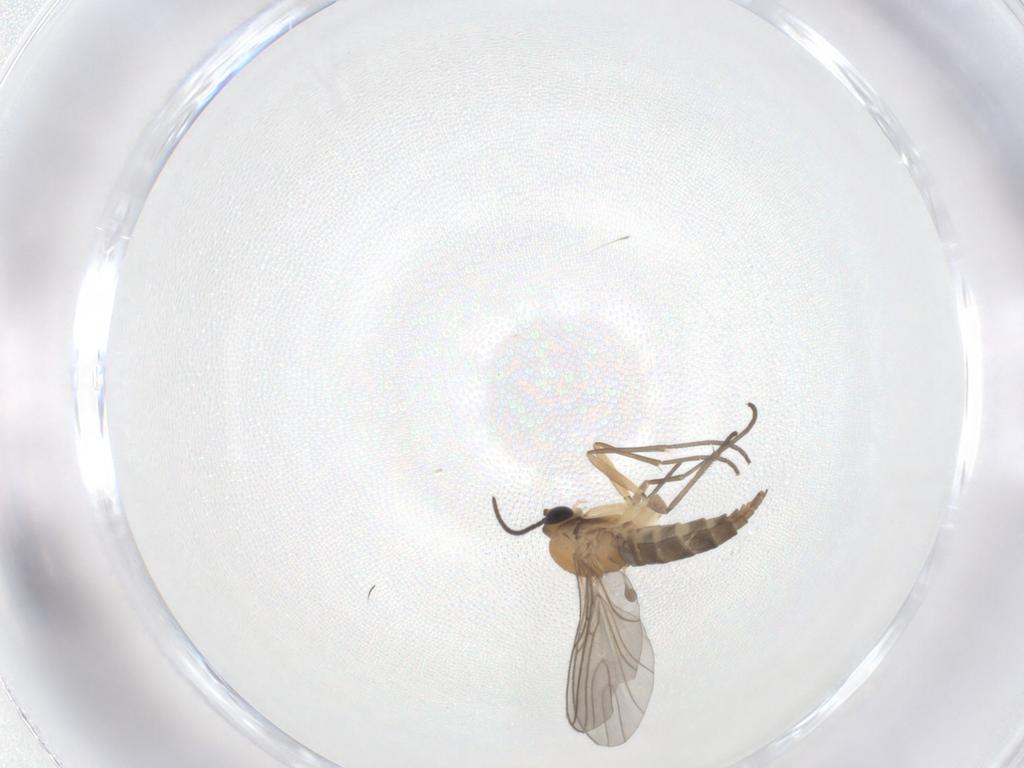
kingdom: Animalia
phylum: Arthropoda
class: Insecta
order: Diptera
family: Sciaridae
